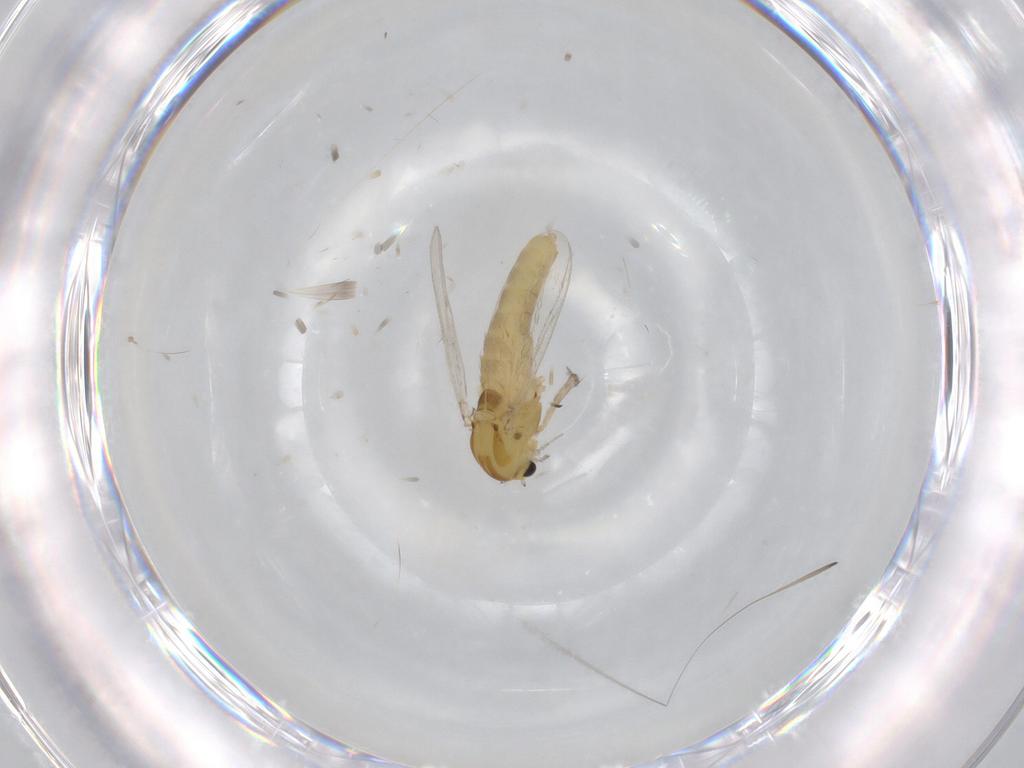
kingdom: Animalia
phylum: Arthropoda
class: Insecta
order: Diptera
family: Chironomidae
